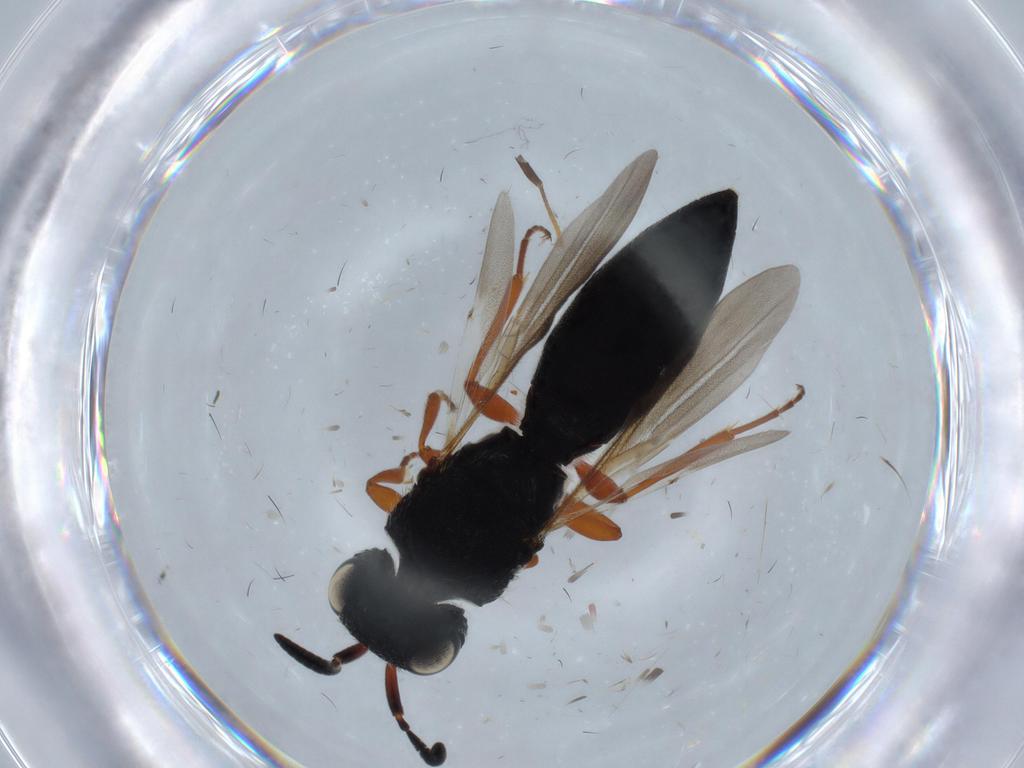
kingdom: Animalia
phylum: Arthropoda
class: Insecta
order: Hymenoptera
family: Scelionidae
